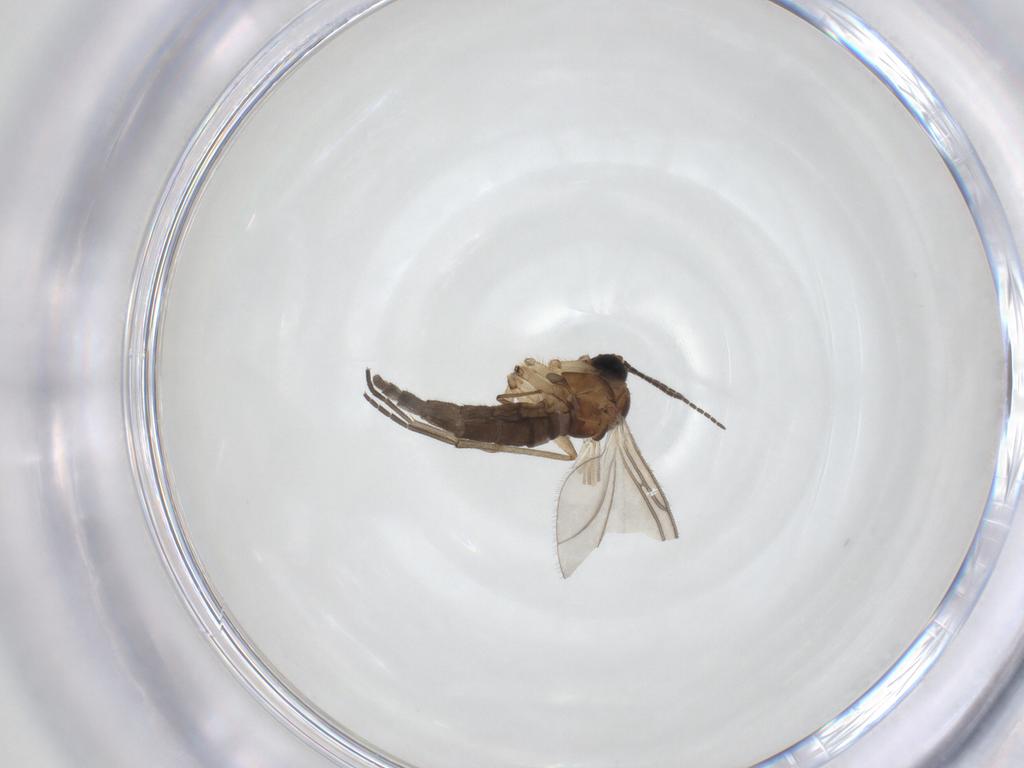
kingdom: Animalia
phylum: Arthropoda
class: Insecta
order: Diptera
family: Sciaridae
